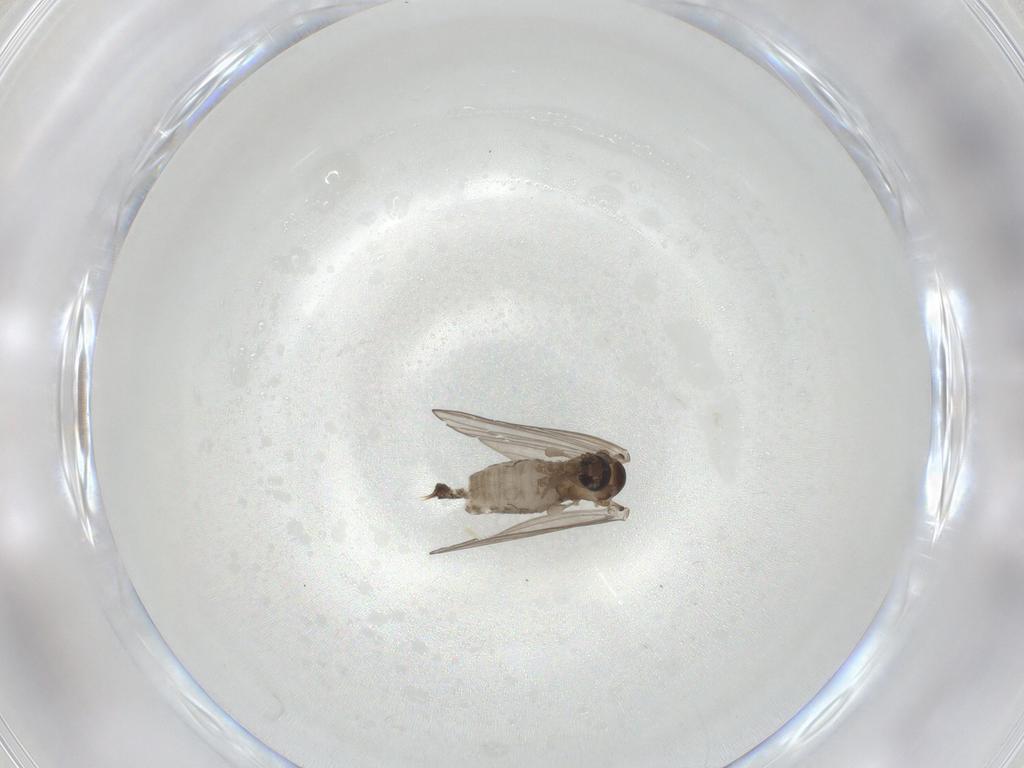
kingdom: Animalia
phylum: Arthropoda
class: Insecta
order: Diptera
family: Psychodidae
